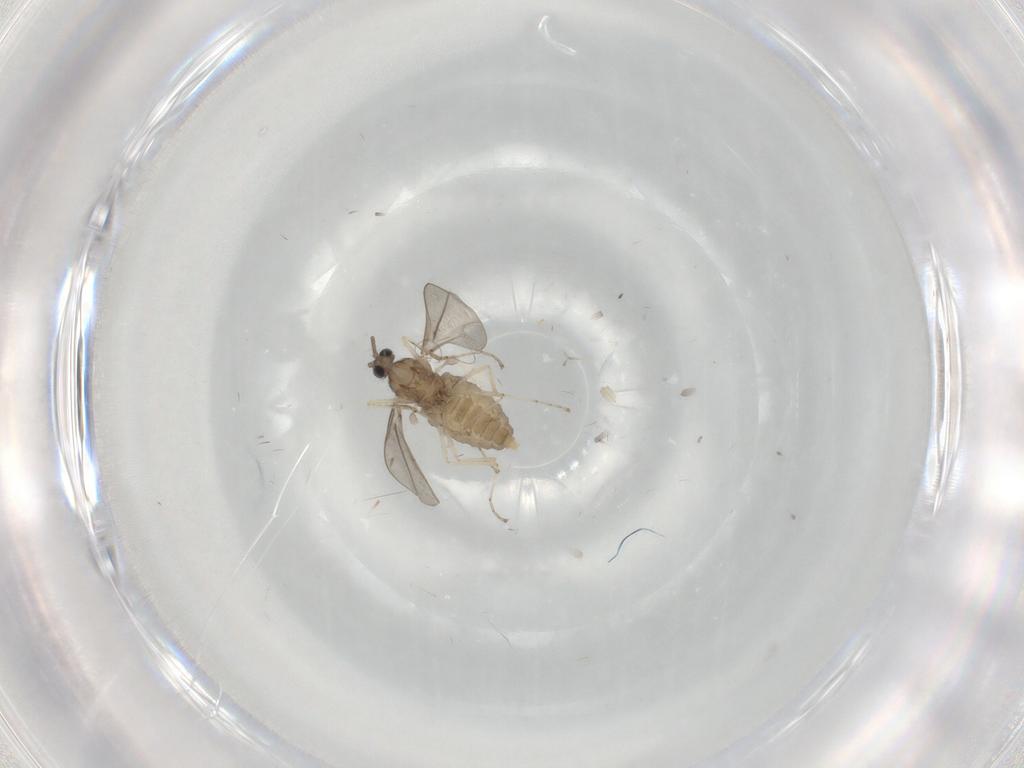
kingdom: Animalia
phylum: Arthropoda
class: Insecta
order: Diptera
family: Cecidomyiidae
